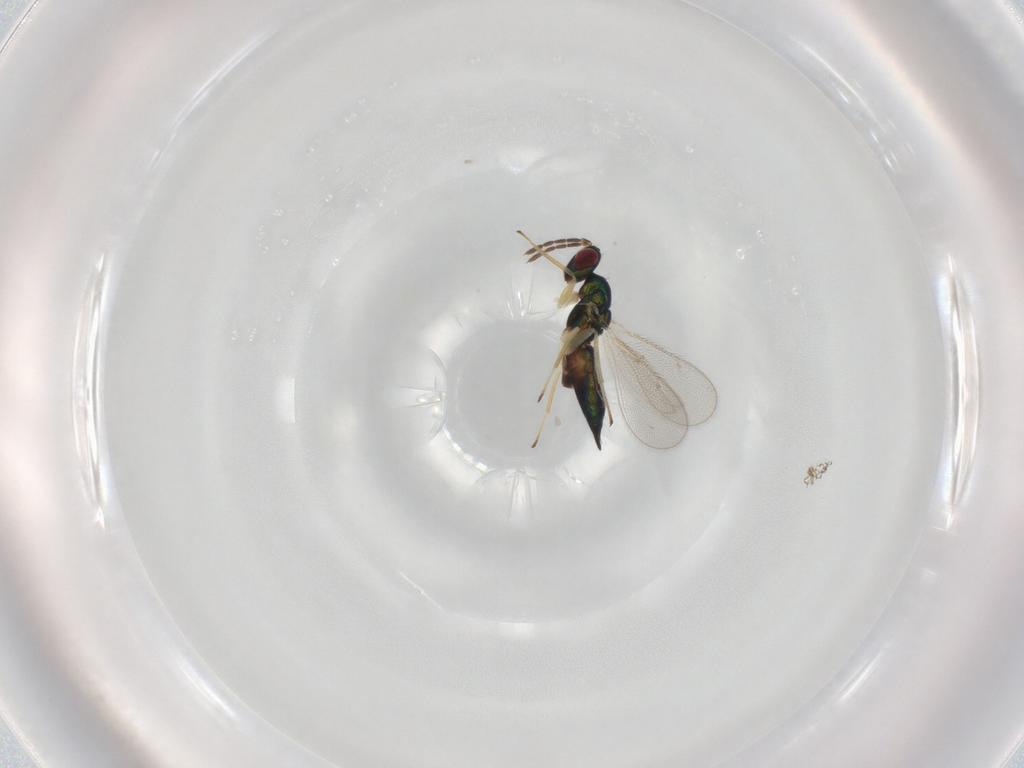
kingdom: Animalia
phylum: Arthropoda
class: Insecta
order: Hymenoptera
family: Eulophidae
